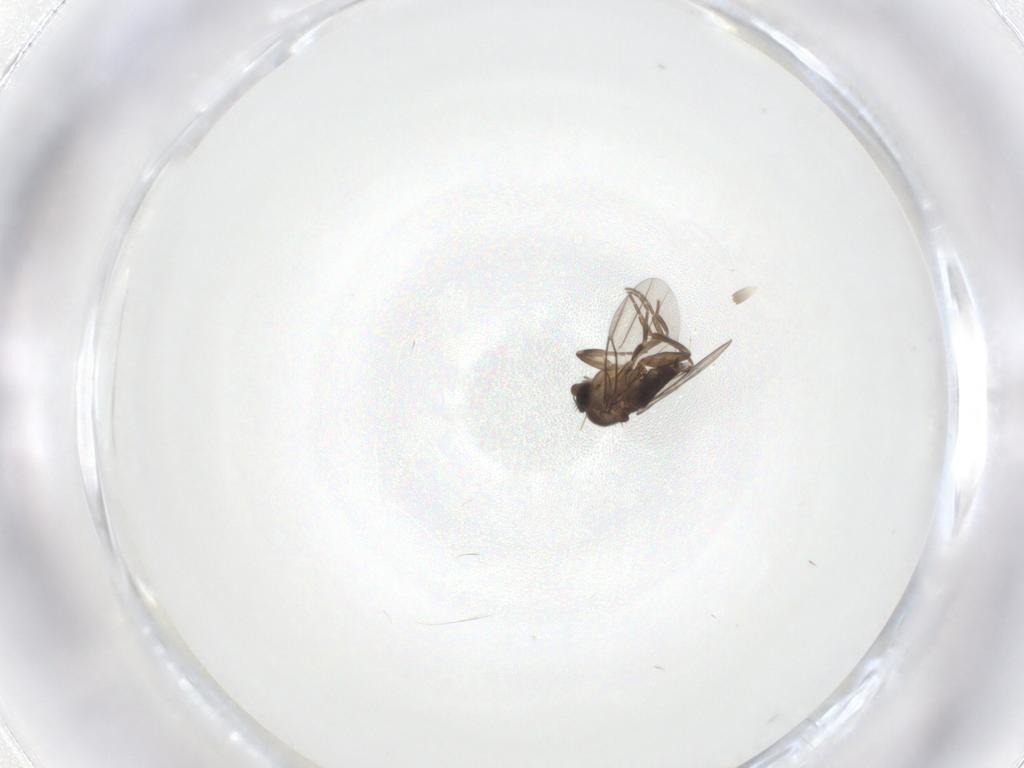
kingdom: Animalia
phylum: Arthropoda
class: Insecta
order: Diptera
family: Phoridae
